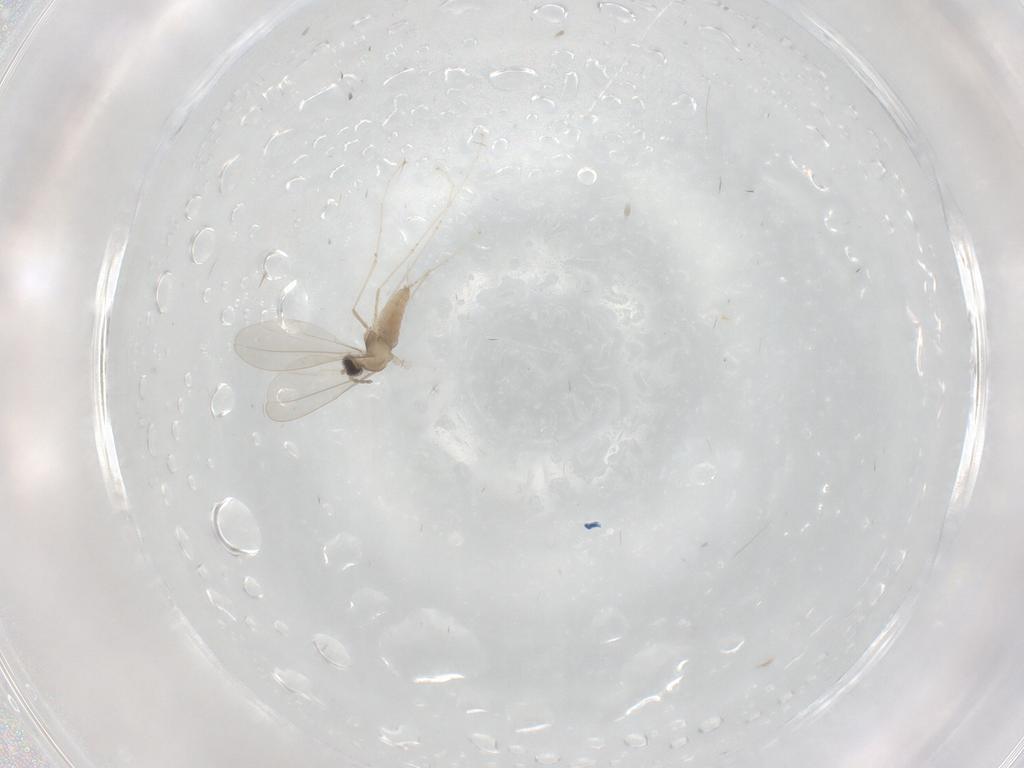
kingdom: Animalia
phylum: Arthropoda
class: Insecta
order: Diptera
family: Cecidomyiidae
